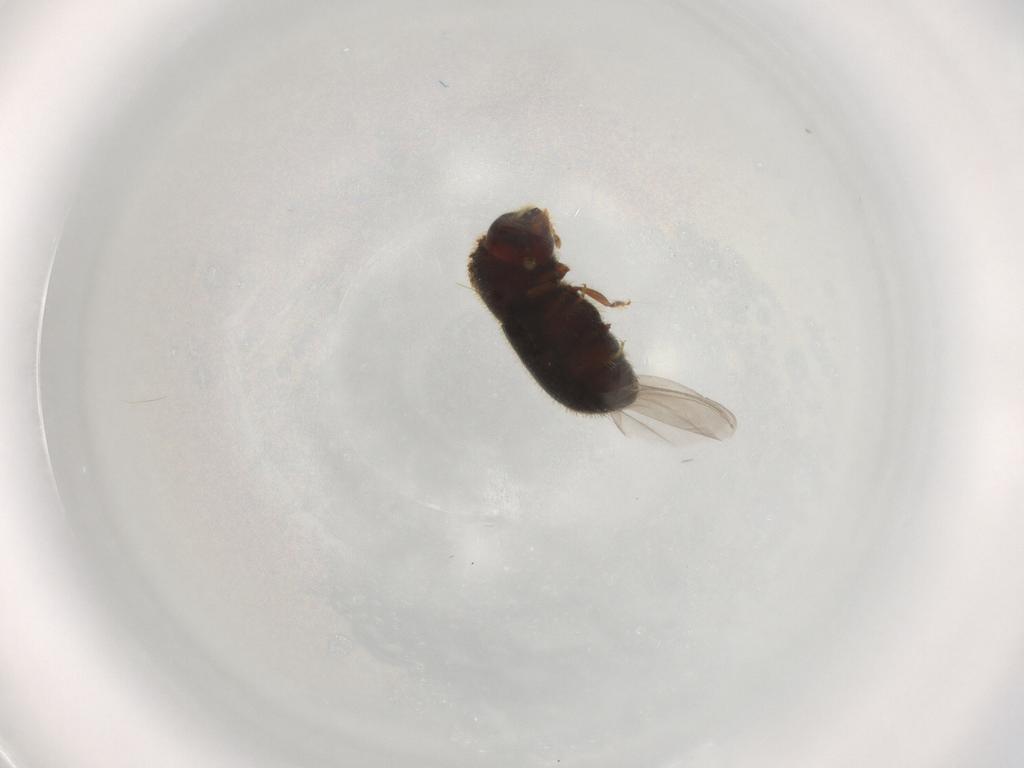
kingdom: Animalia
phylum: Arthropoda
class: Insecta
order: Coleoptera
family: Curculionidae
